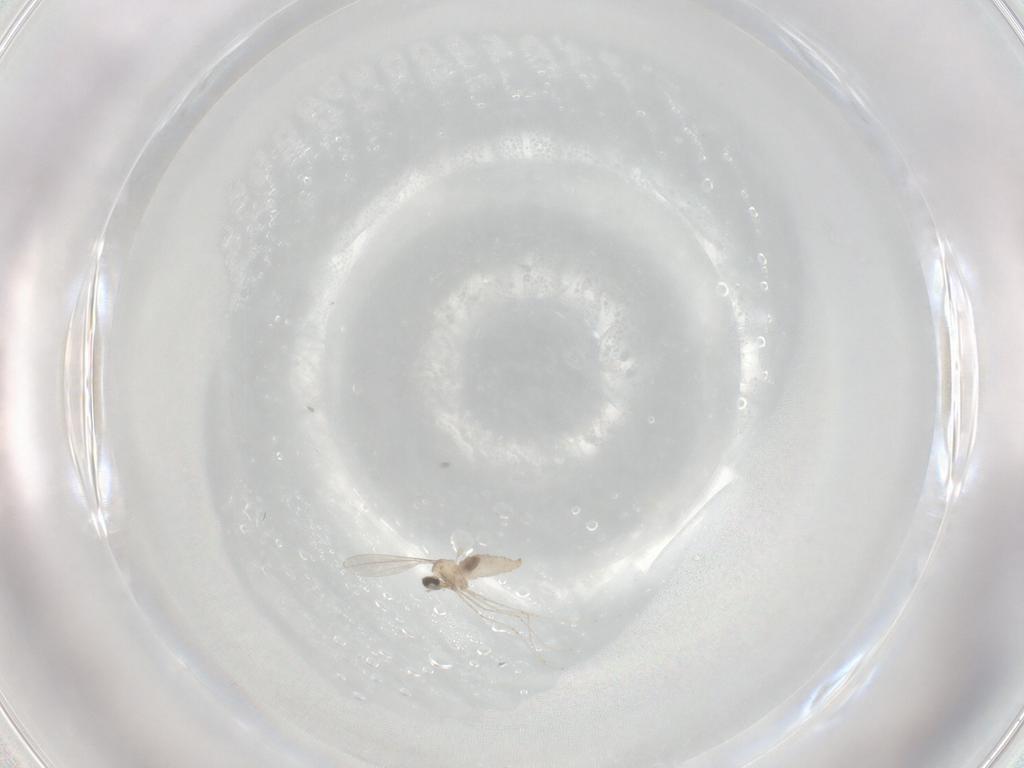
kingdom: Animalia
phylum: Arthropoda
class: Insecta
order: Diptera
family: Cecidomyiidae
